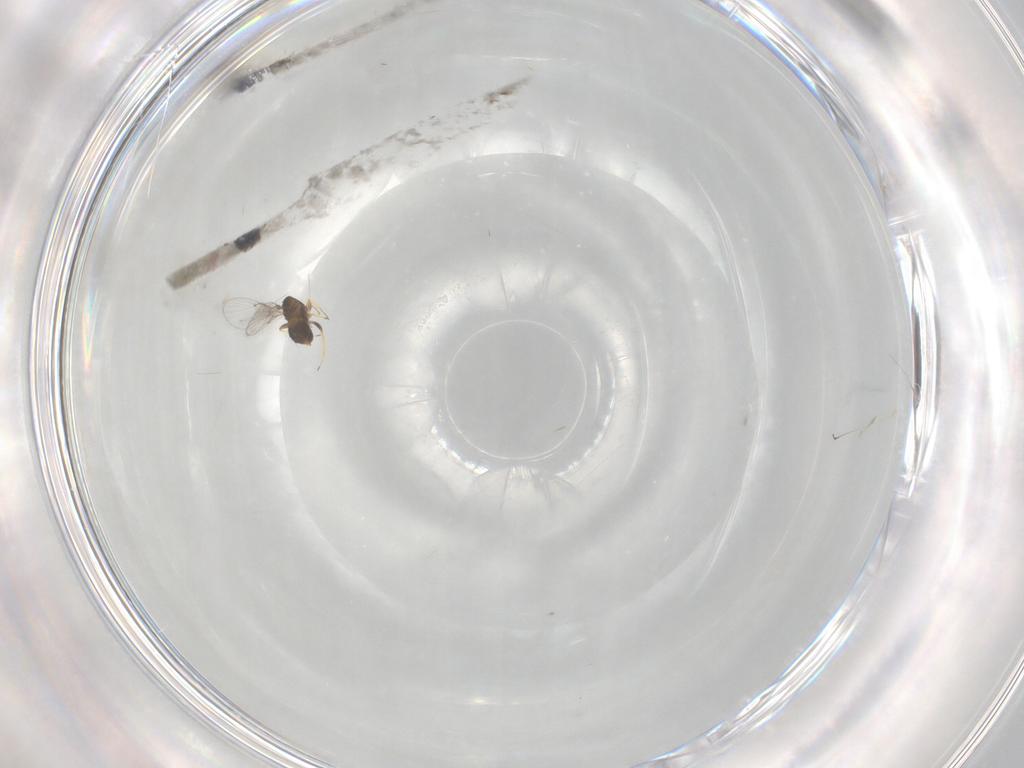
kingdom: Animalia
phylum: Arthropoda
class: Insecta
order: Hymenoptera
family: Trichogrammatidae
